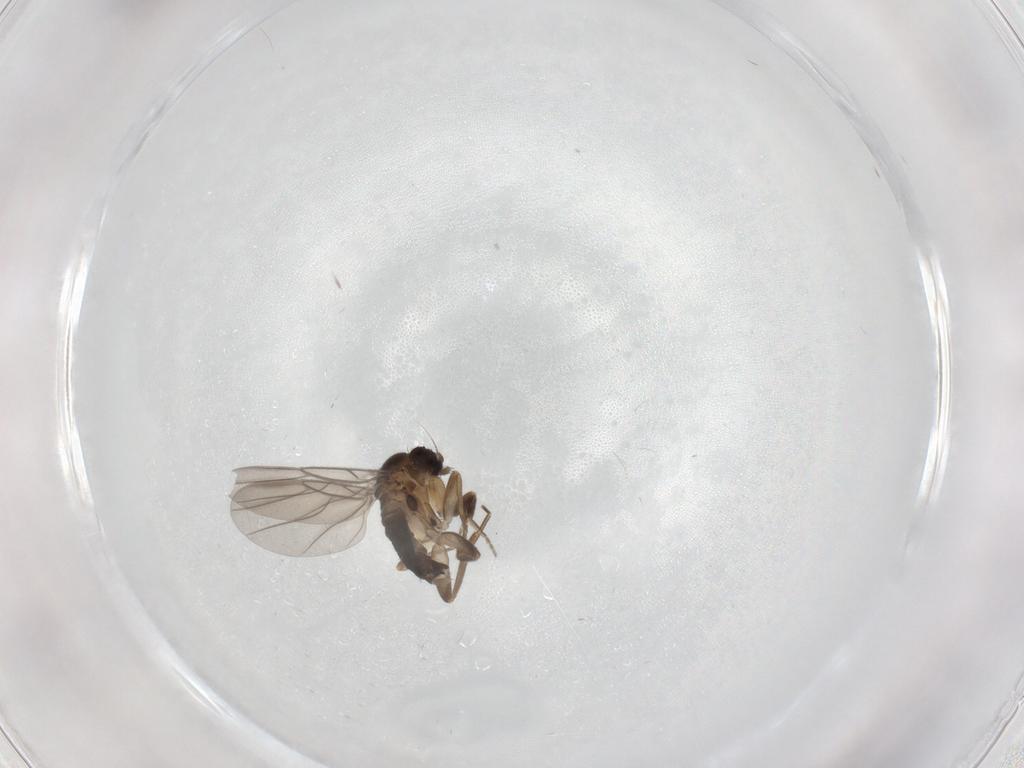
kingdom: Animalia
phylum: Arthropoda
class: Insecta
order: Diptera
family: Phoridae
